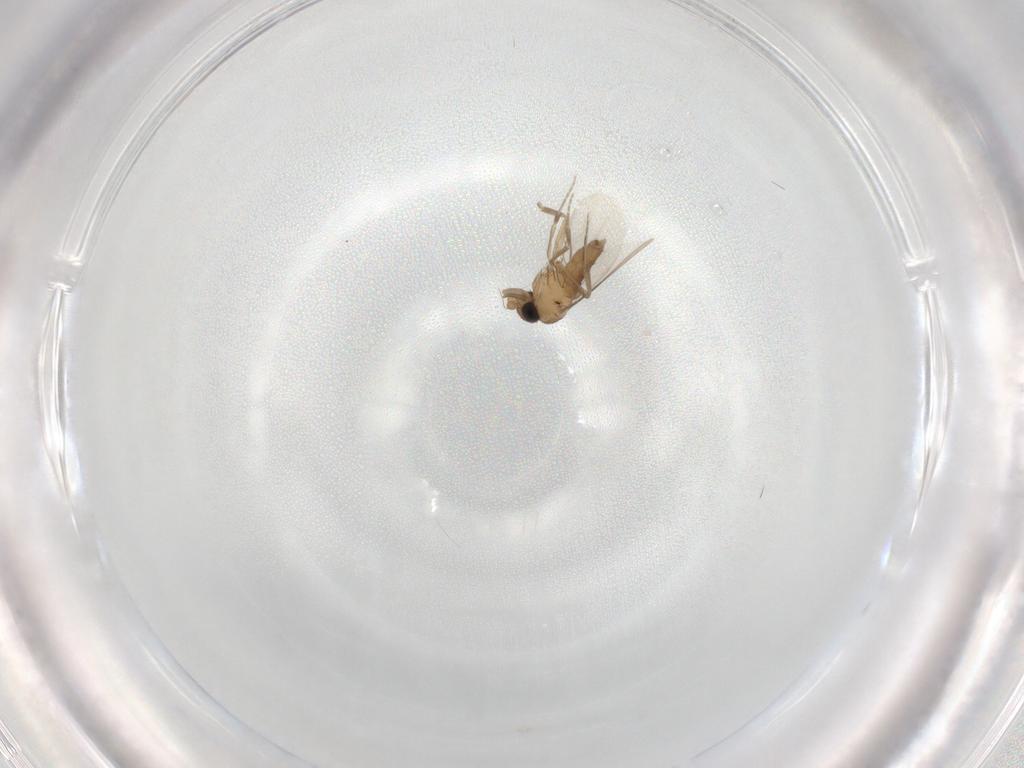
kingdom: Animalia
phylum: Arthropoda
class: Insecta
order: Diptera
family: Phoridae
